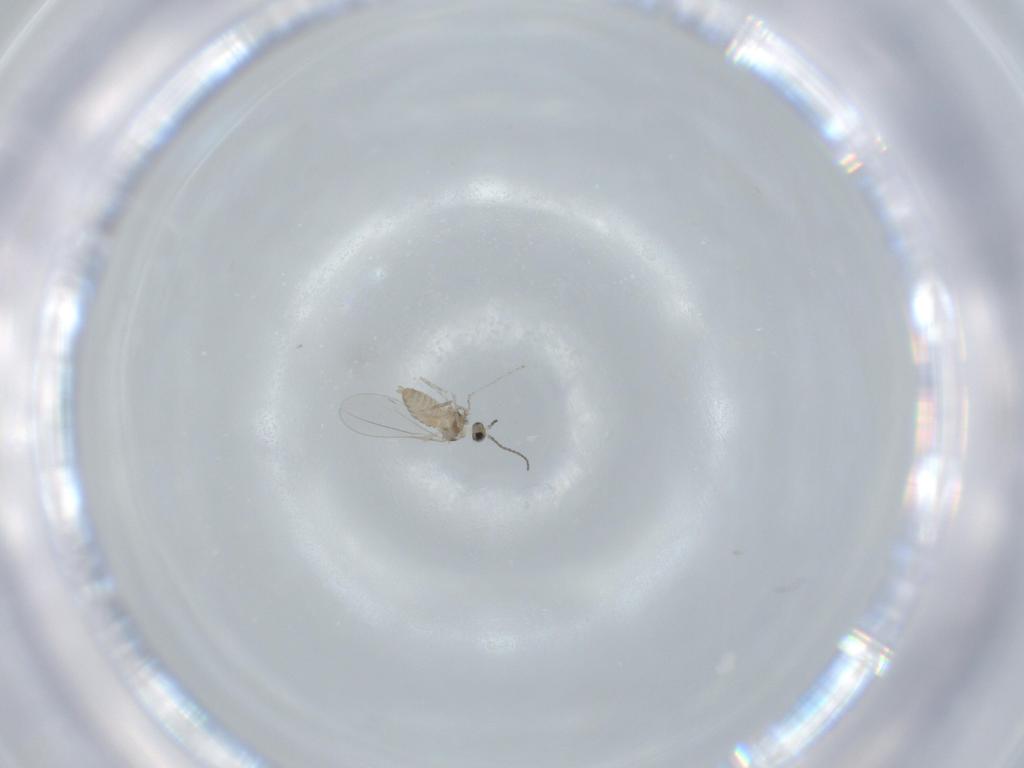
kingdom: Animalia
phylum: Arthropoda
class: Insecta
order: Diptera
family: Cecidomyiidae
